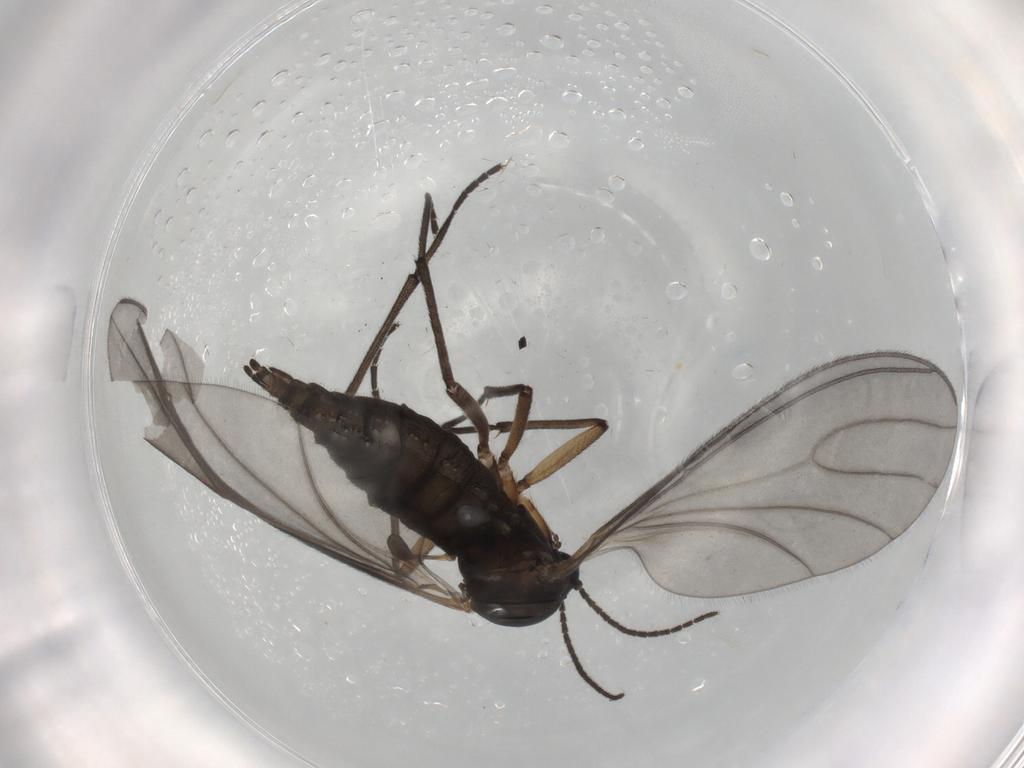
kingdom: Animalia
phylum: Arthropoda
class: Insecta
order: Diptera
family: Sciaridae
